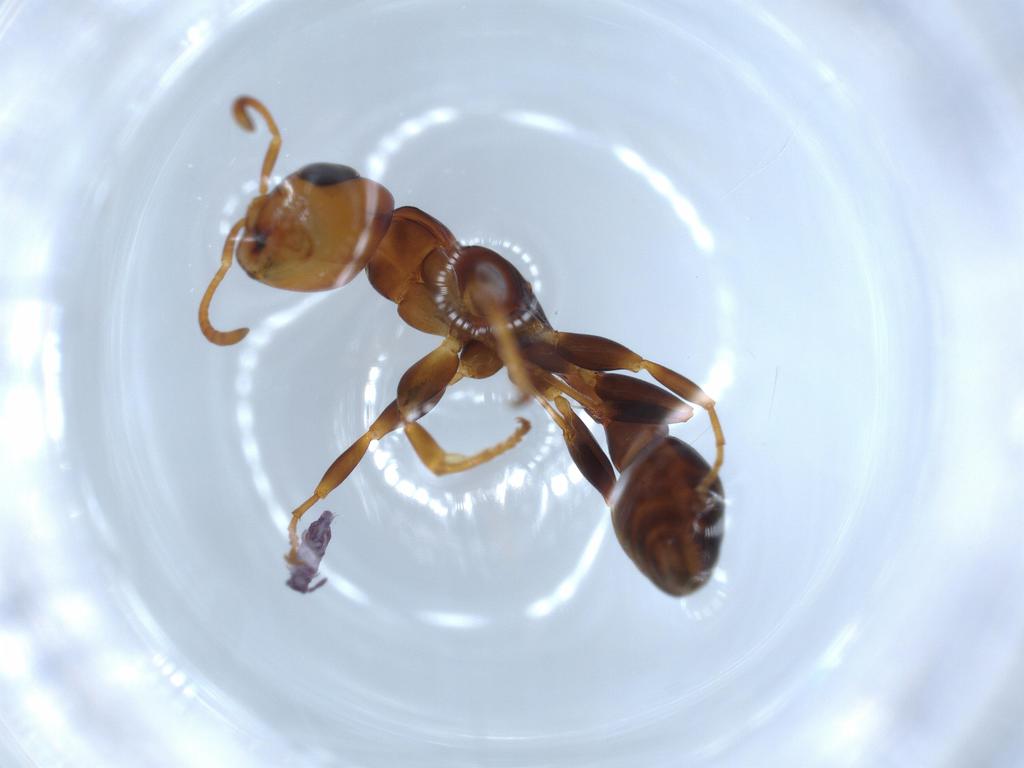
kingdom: Animalia
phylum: Arthropoda
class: Insecta
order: Hymenoptera
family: Formicidae
